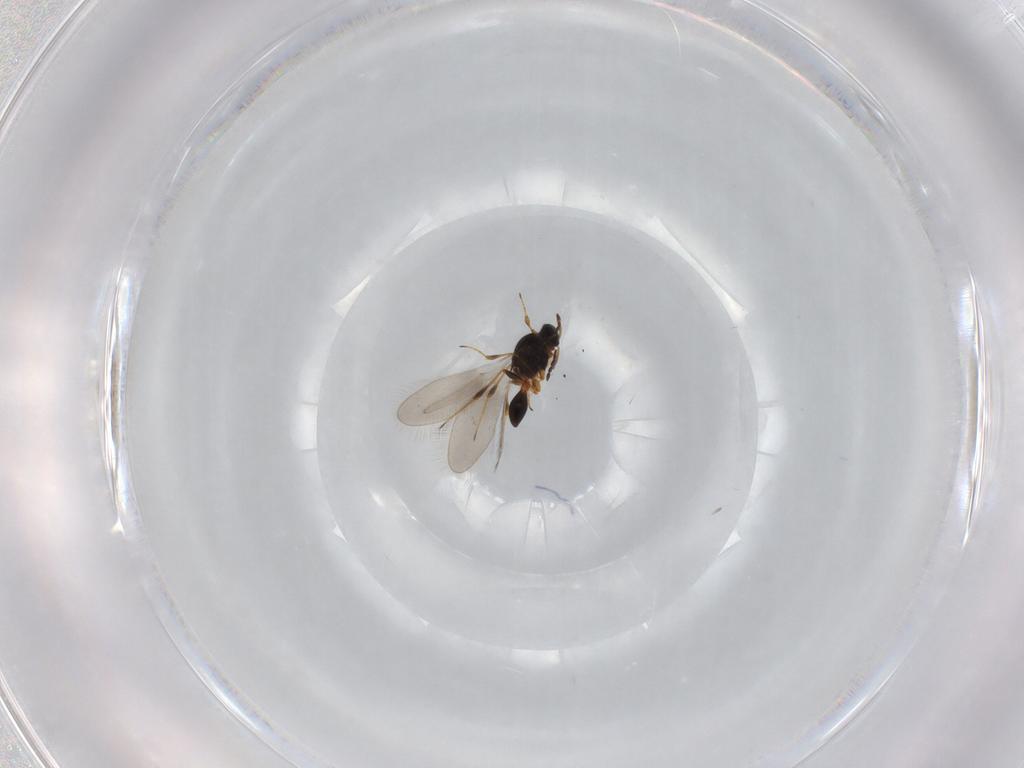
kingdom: Animalia
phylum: Arthropoda
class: Insecta
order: Hymenoptera
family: Platygastridae
